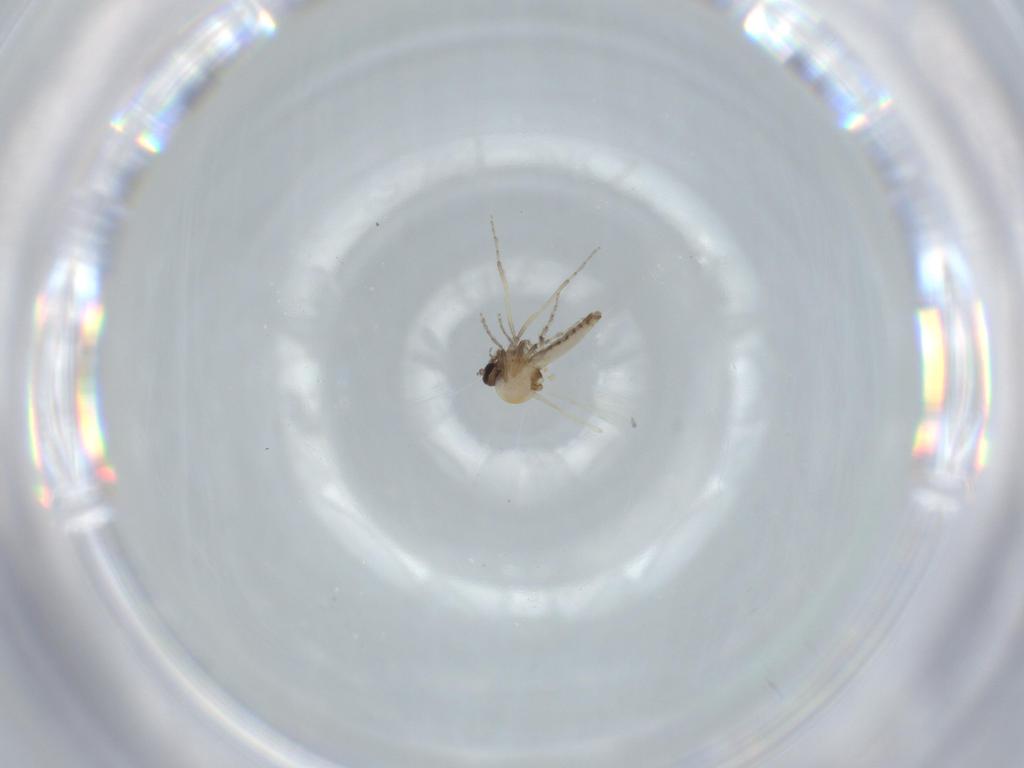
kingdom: Animalia
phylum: Arthropoda
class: Insecta
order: Diptera
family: Ceratopogonidae
